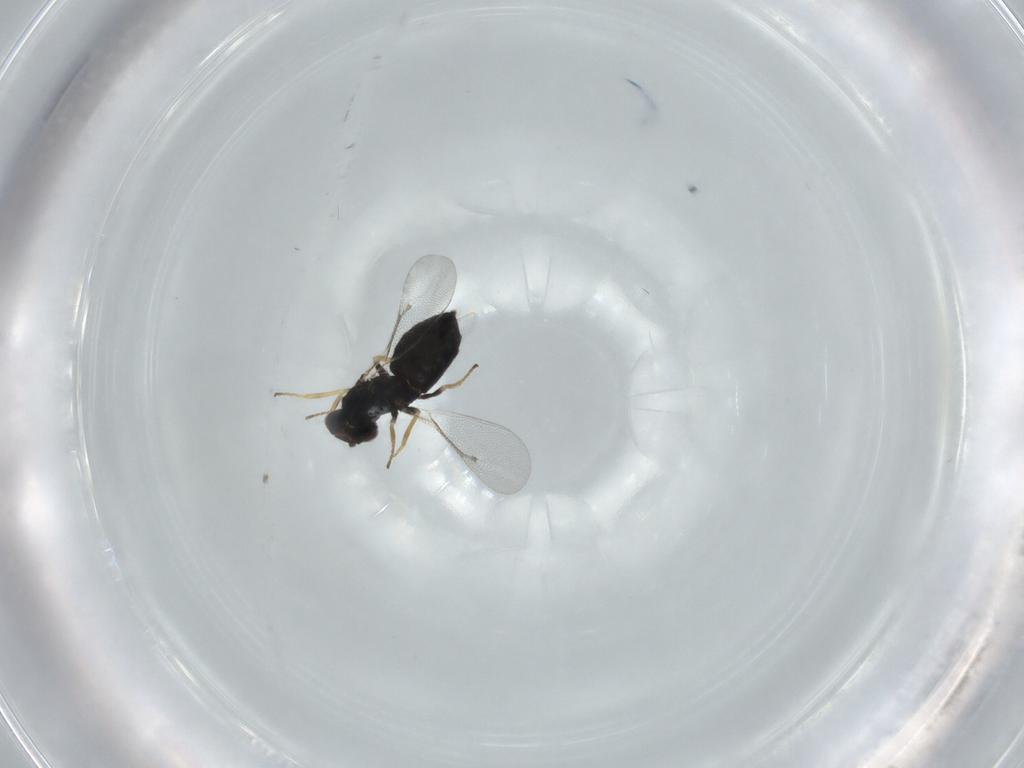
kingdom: Animalia
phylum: Arthropoda
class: Insecta
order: Hymenoptera
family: Eulophidae
